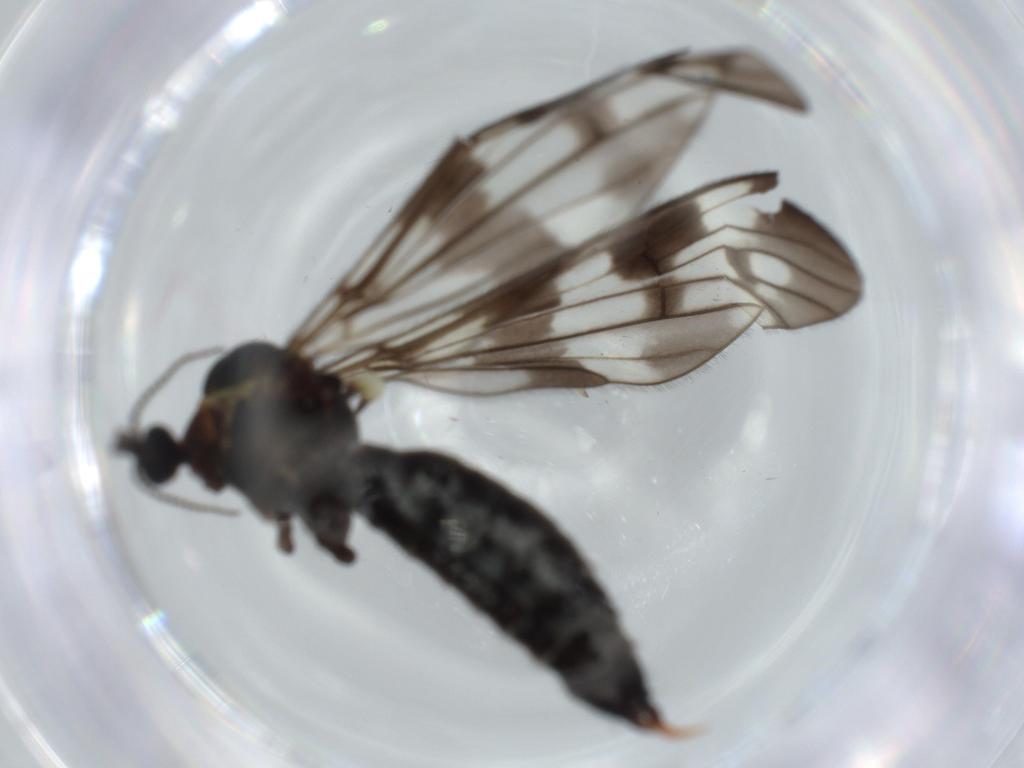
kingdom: Animalia
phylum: Arthropoda
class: Insecta
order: Diptera
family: Limoniidae
